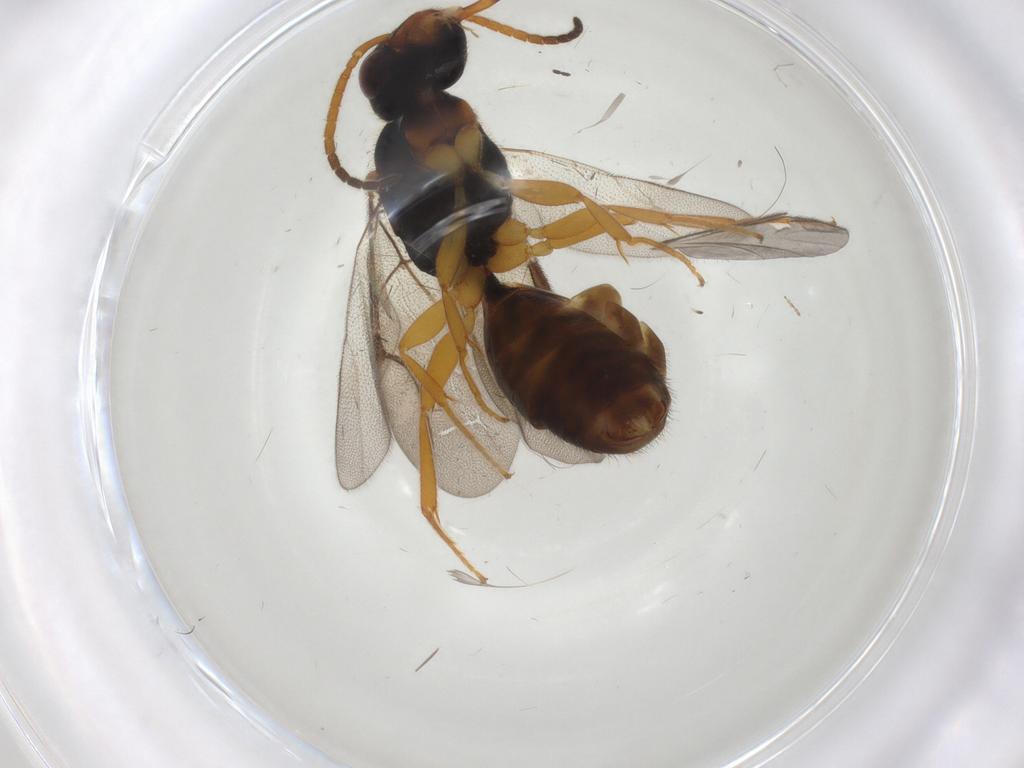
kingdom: Animalia
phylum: Arthropoda
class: Insecta
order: Hymenoptera
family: Bethylidae
